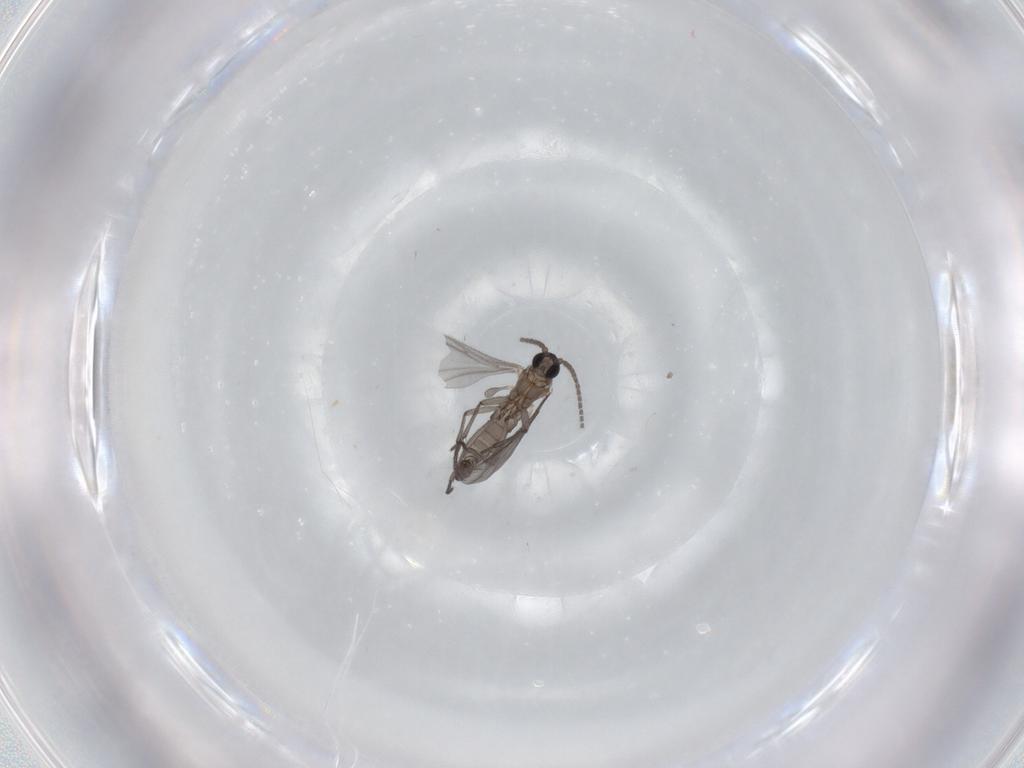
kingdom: Animalia
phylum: Arthropoda
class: Insecta
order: Diptera
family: Sciaridae
